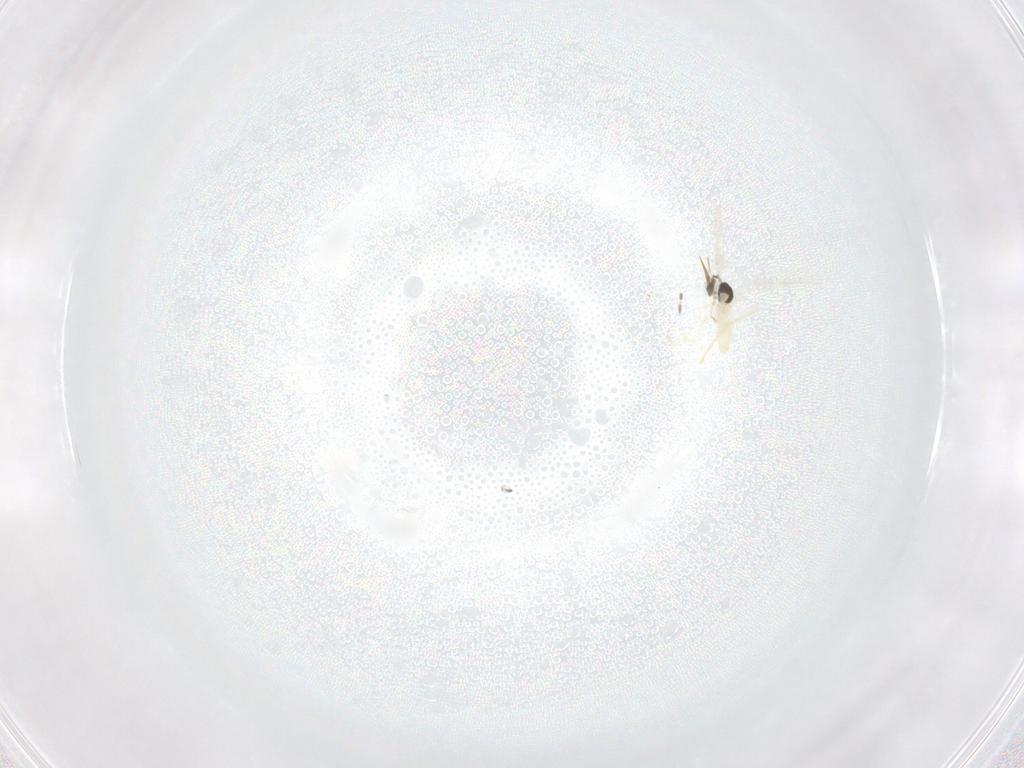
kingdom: Animalia
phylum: Arthropoda
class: Insecta
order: Diptera
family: Cecidomyiidae
